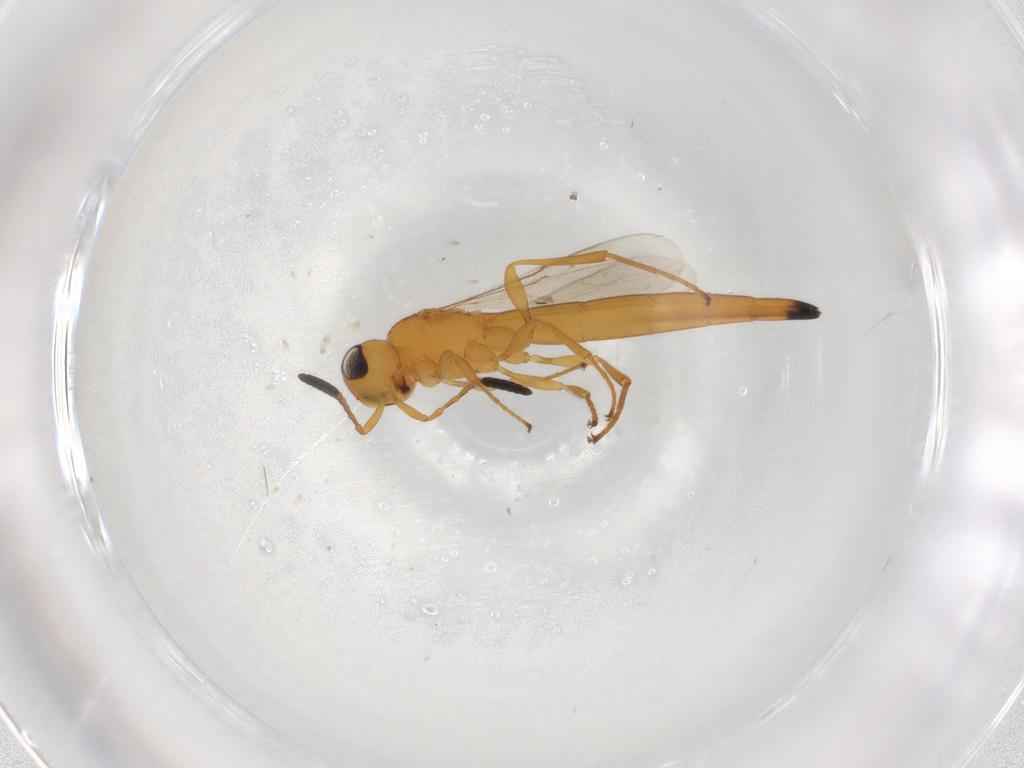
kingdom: Animalia
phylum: Arthropoda
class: Insecta
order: Hymenoptera
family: Scelionidae
